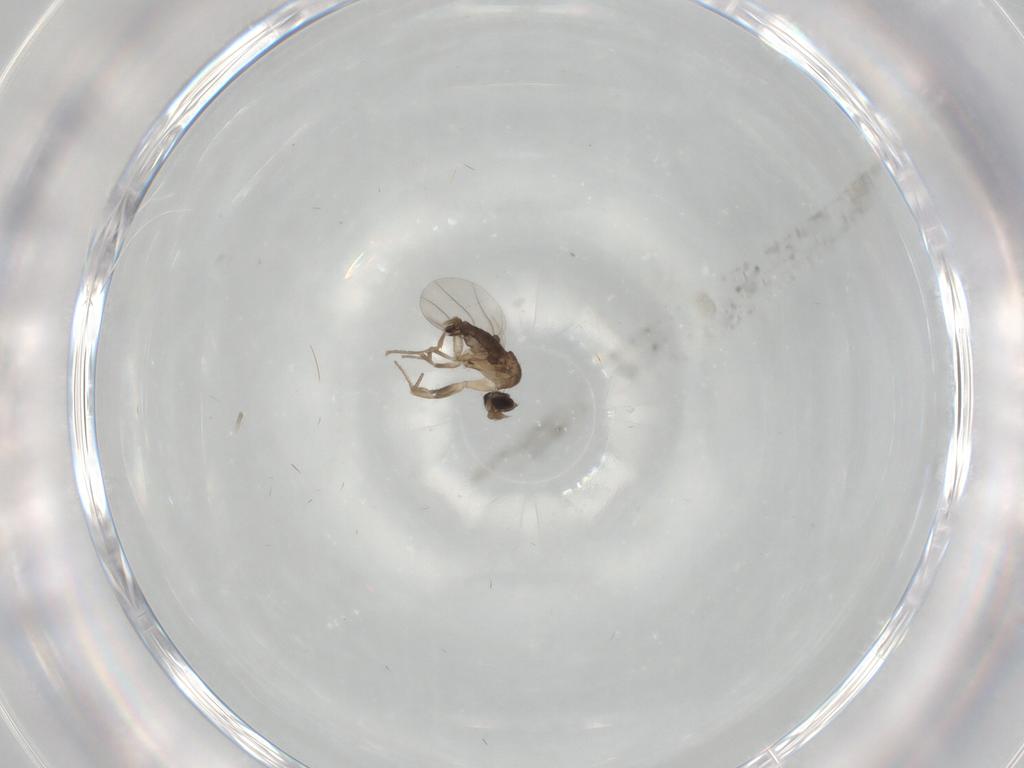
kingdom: Animalia
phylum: Arthropoda
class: Insecta
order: Diptera
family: Phoridae
